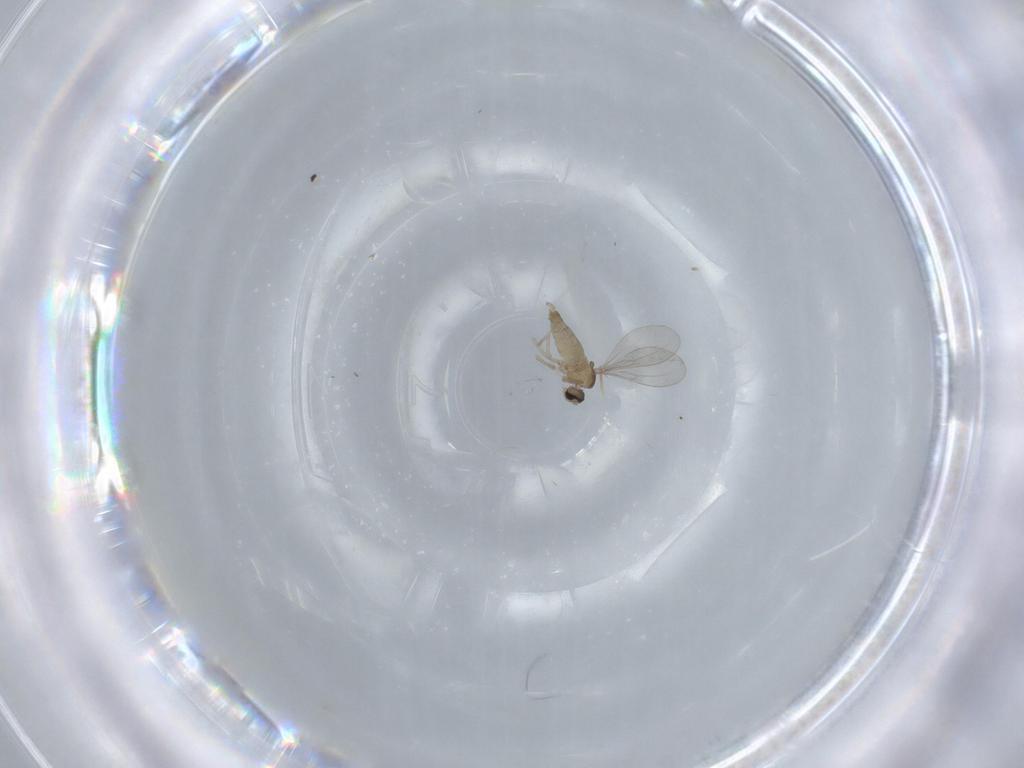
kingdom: Animalia
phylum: Arthropoda
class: Insecta
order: Diptera
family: Cecidomyiidae
